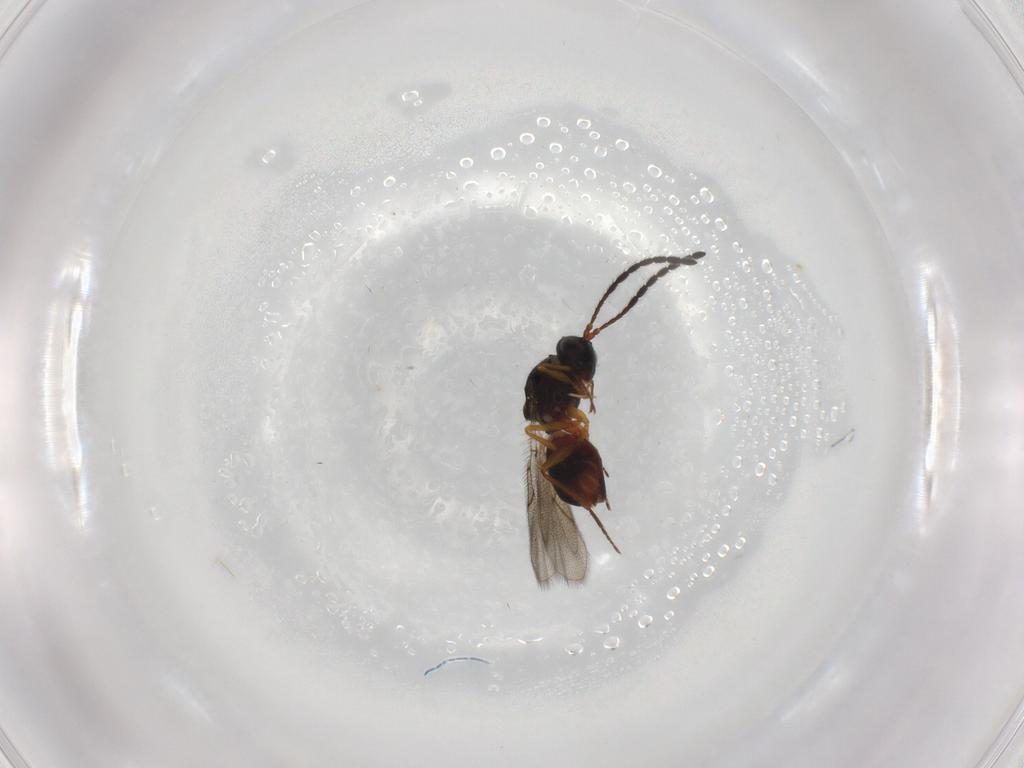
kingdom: Animalia
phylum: Arthropoda
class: Insecta
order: Hymenoptera
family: Figitidae
